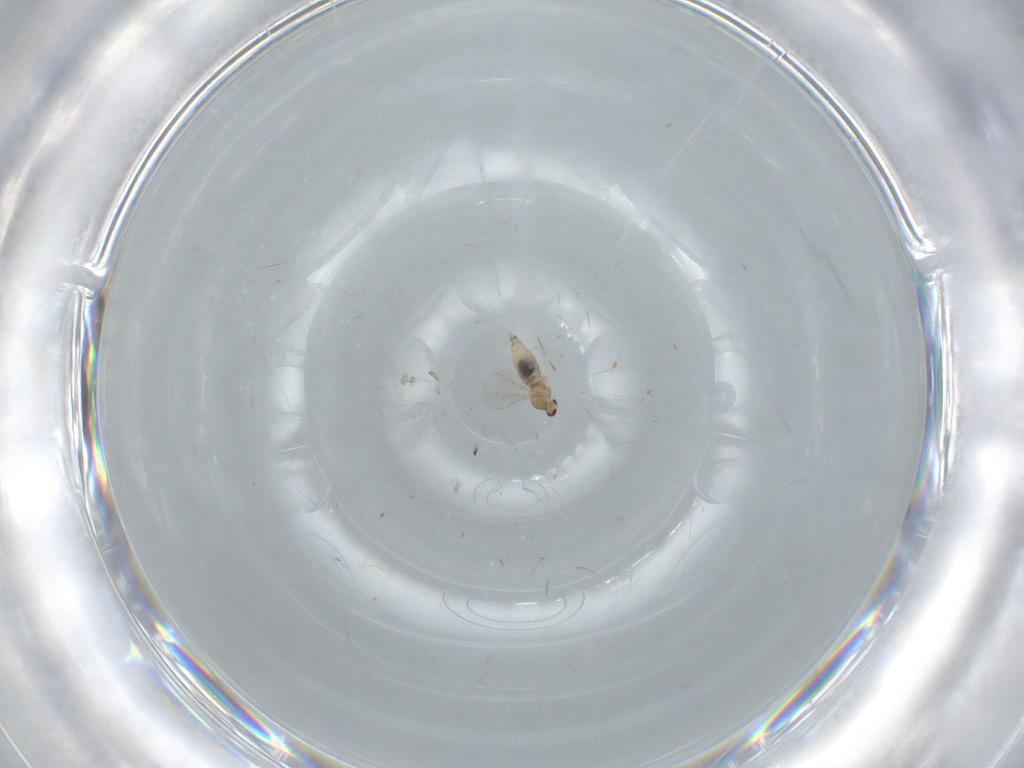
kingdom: Animalia
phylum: Arthropoda
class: Insecta
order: Diptera
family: Cecidomyiidae
